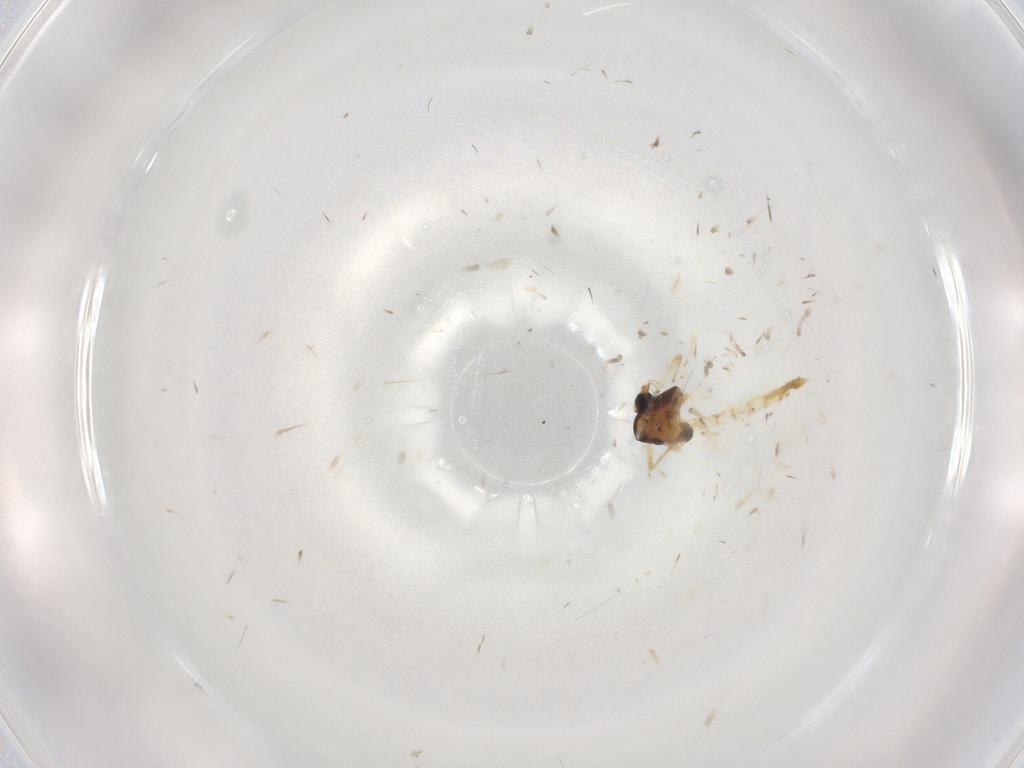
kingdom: Animalia
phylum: Arthropoda
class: Insecta
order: Diptera
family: Chironomidae
